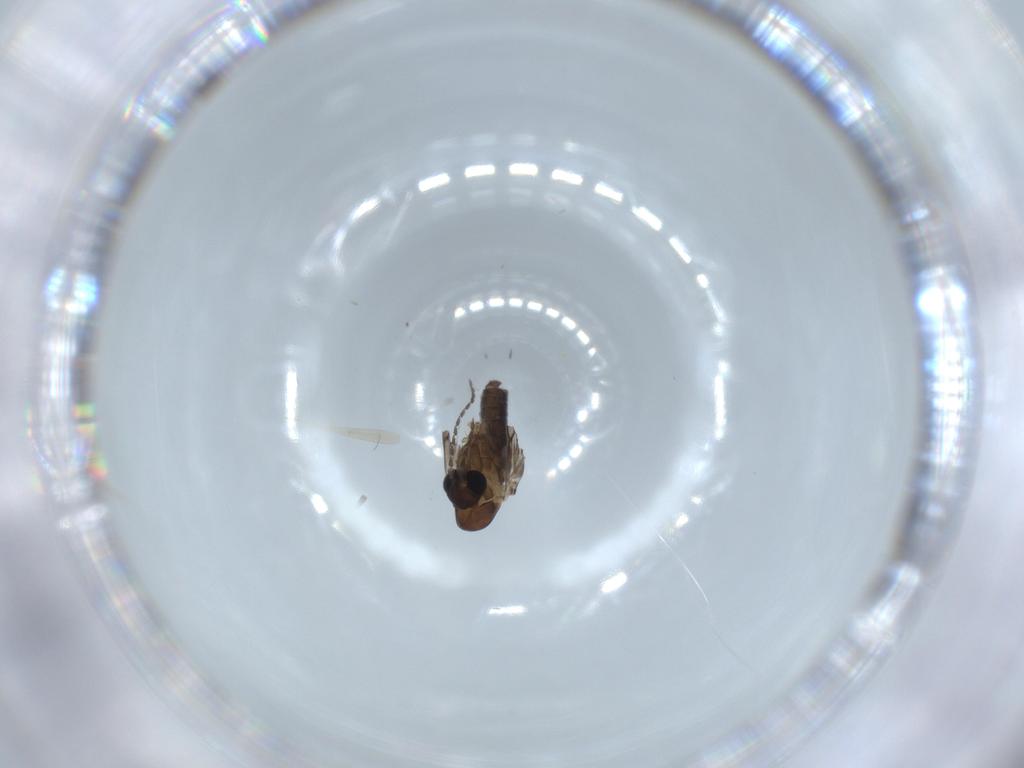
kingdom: Animalia
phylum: Arthropoda
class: Insecta
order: Diptera
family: Psychodidae
